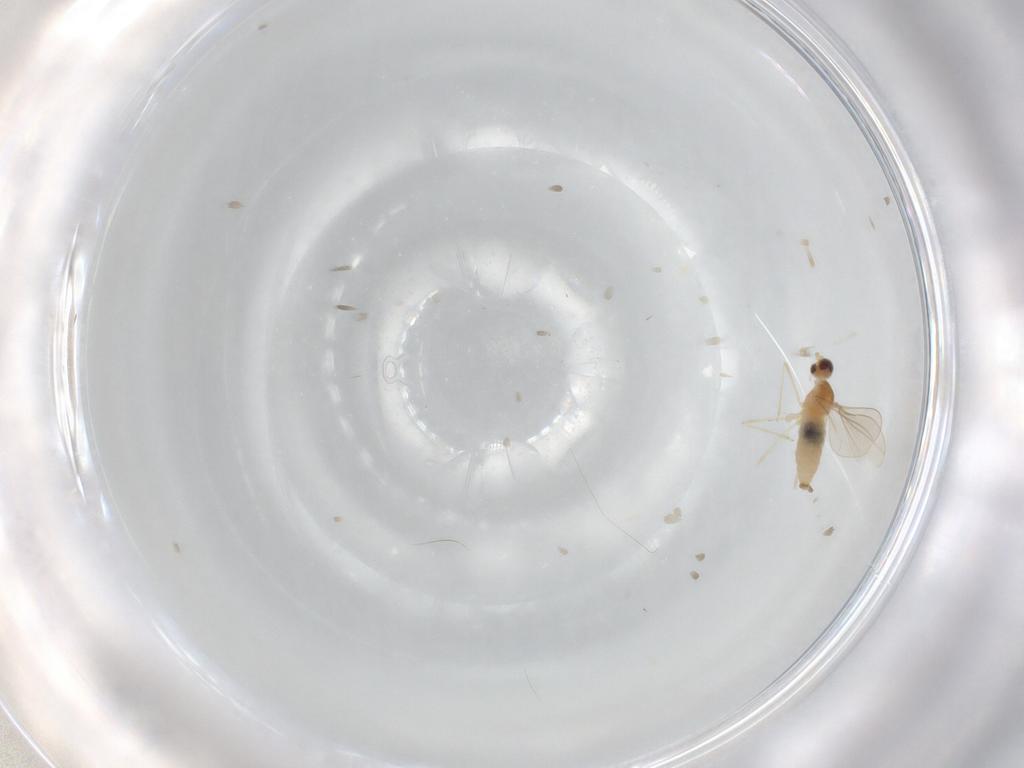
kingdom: Animalia
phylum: Arthropoda
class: Insecta
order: Diptera
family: Cecidomyiidae
